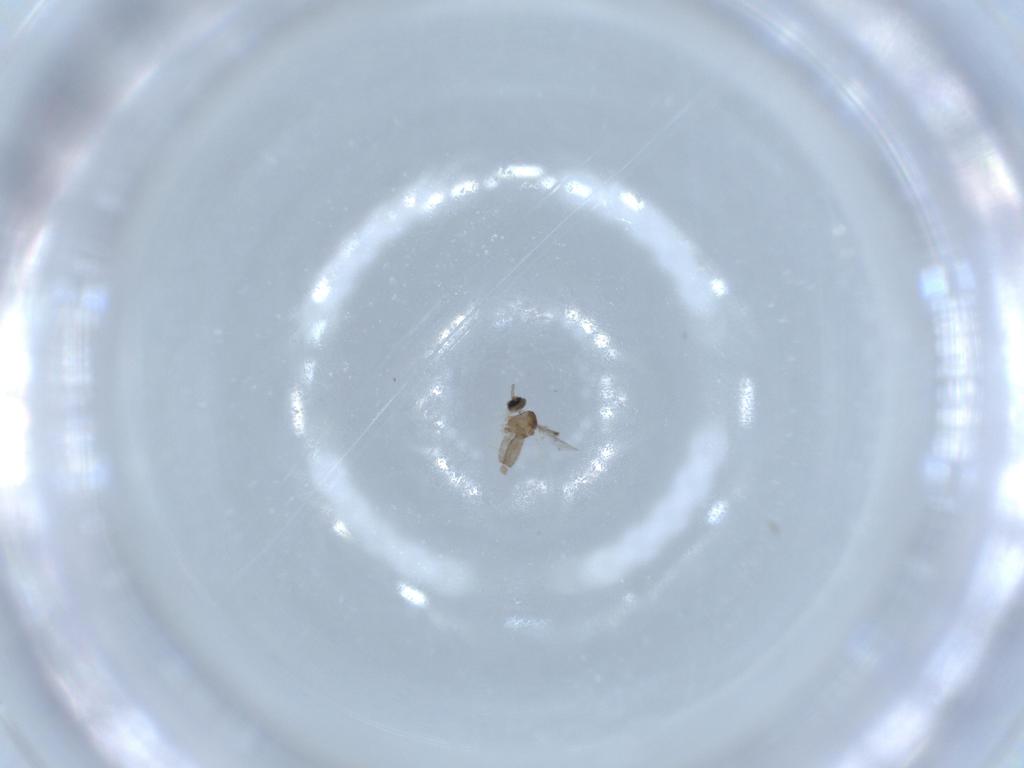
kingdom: Animalia
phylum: Arthropoda
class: Insecta
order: Diptera
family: Cecidomyiidae
